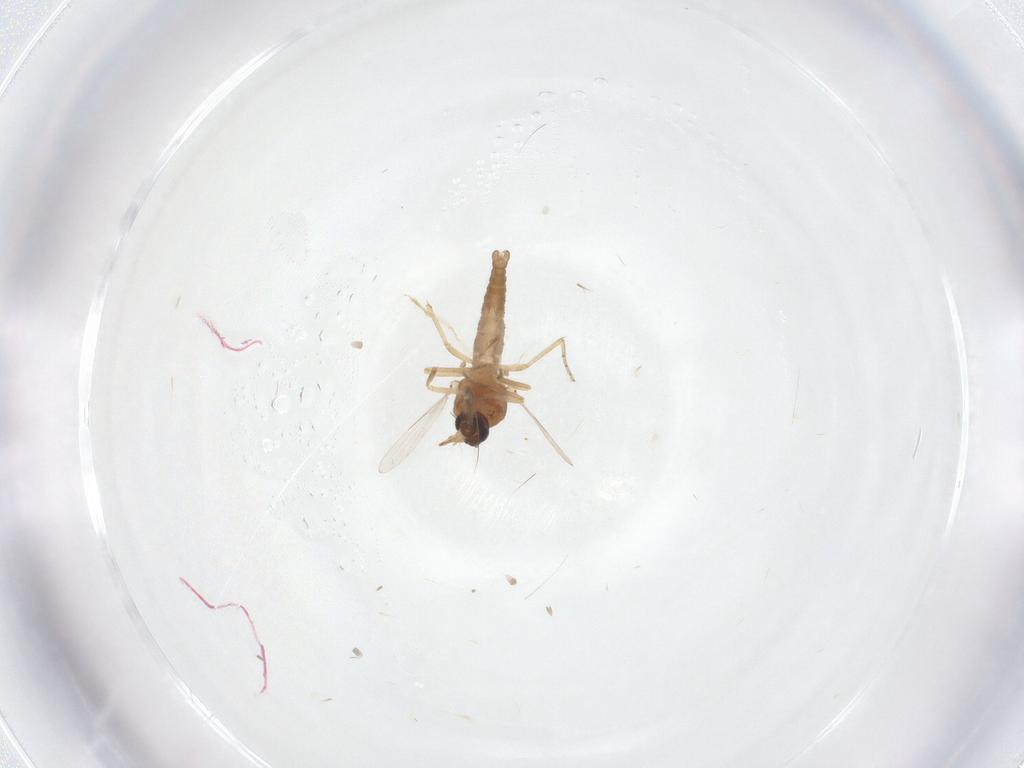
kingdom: Animalia
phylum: Arthropoda
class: Insecta
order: Diptera
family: Ceratopogonidae
